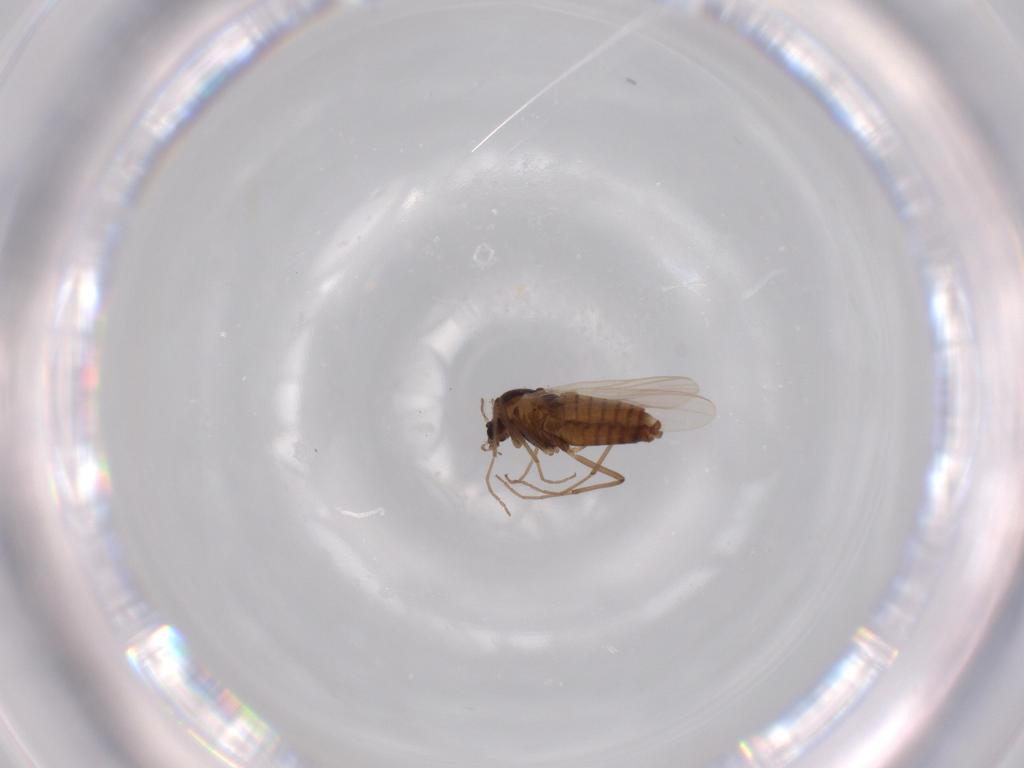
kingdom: Animalia
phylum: Arthropoda
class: Insecta
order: Diptera
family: Chironomidae
